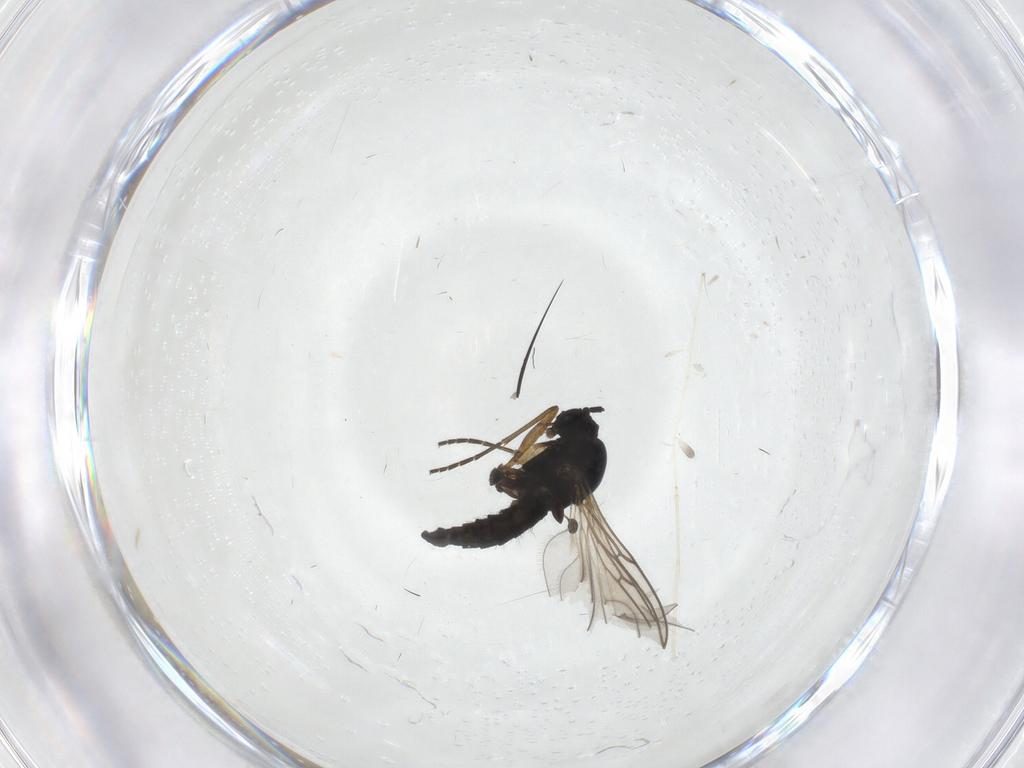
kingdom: Animalia
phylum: Arthropoda
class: Insecta
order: Diptera
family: Sciaridae
